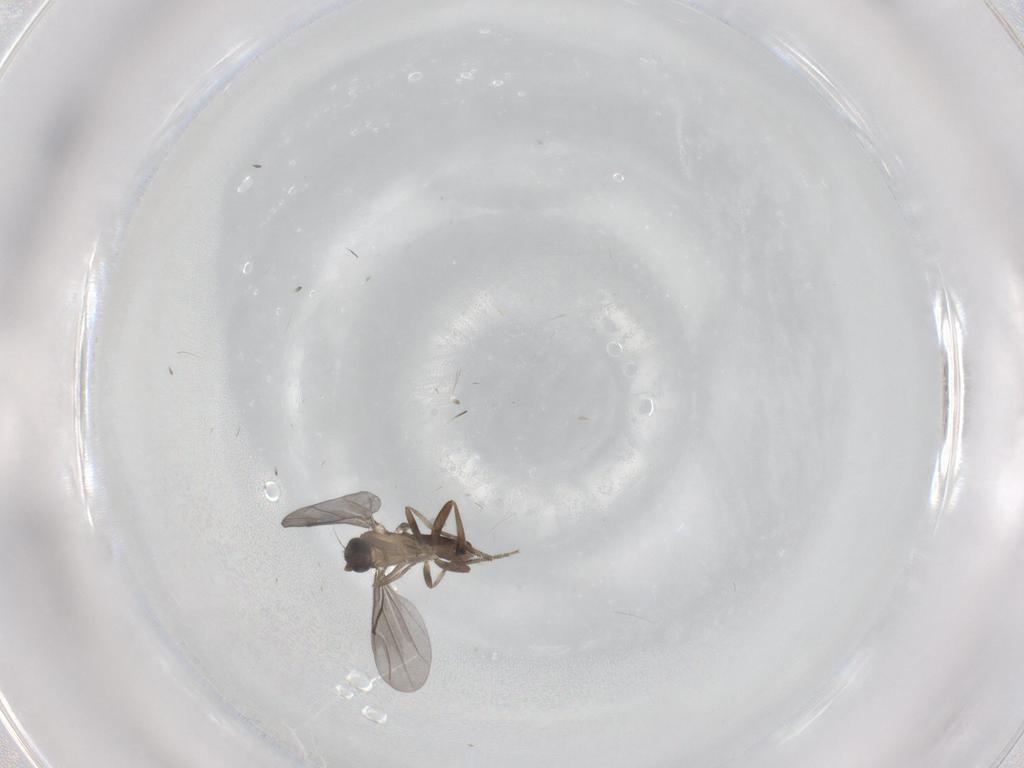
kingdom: Animalia
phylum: Arthropoda
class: Insecta
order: Diptera
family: Phoridae
